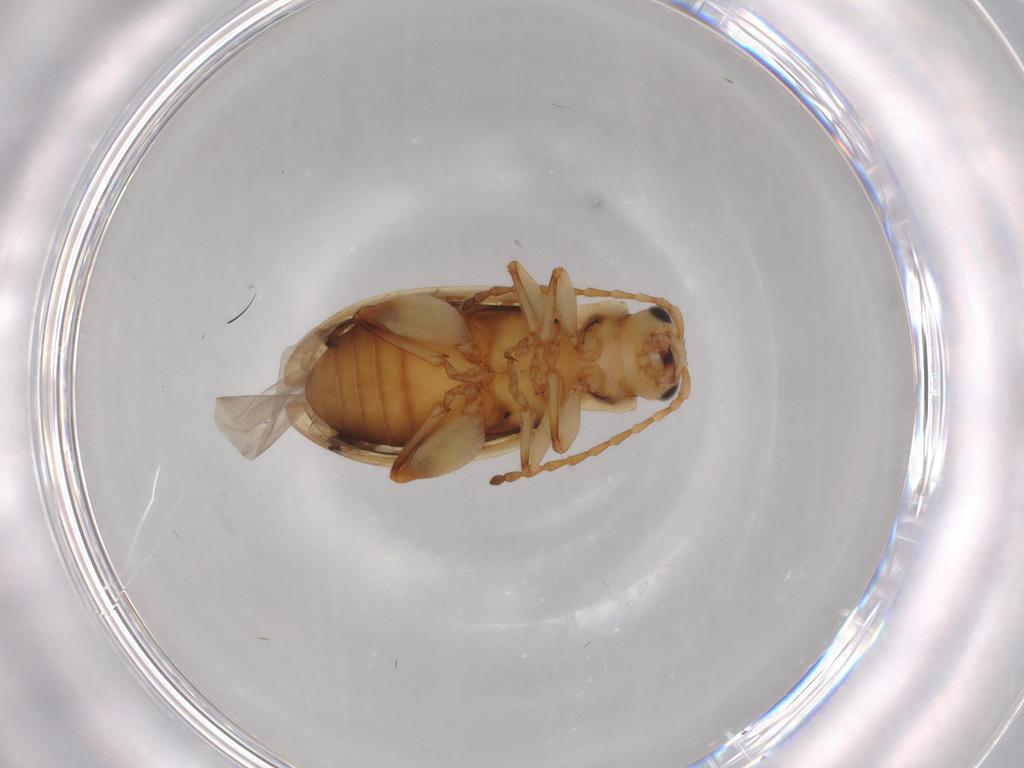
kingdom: Animalia
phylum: Arthropoda
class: Insecta
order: Coleoptera
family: Chrysomelidae
